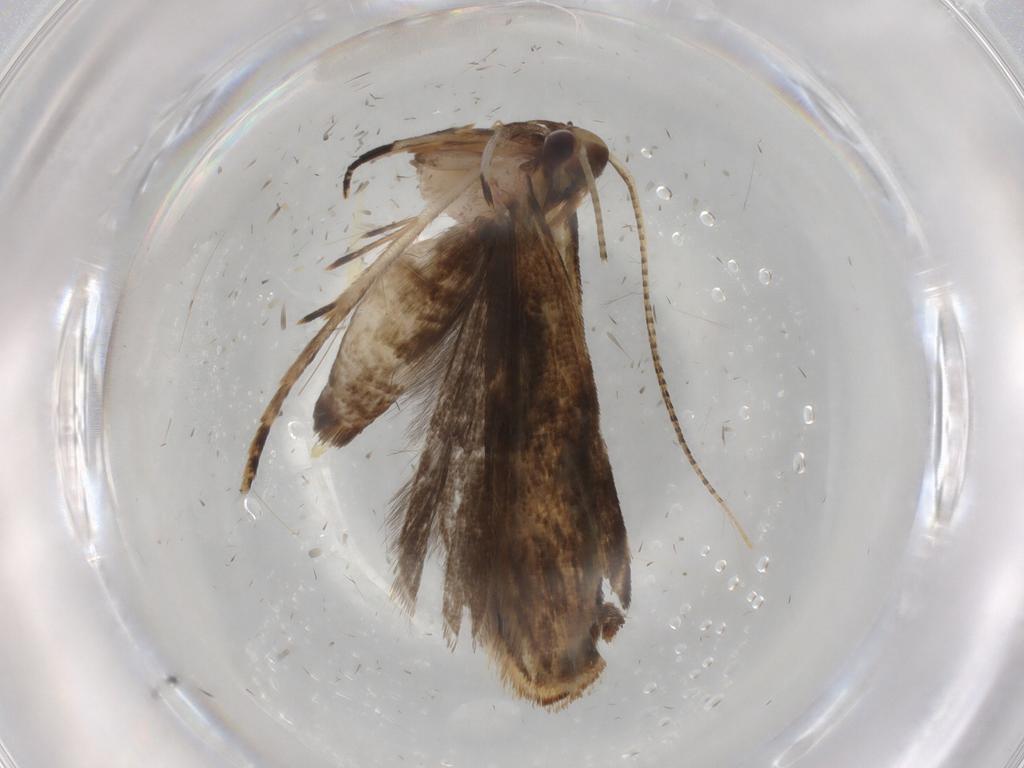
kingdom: Animalia
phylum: Arthropoda
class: Insecta
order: Lepidoptera
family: Gelechiidae
